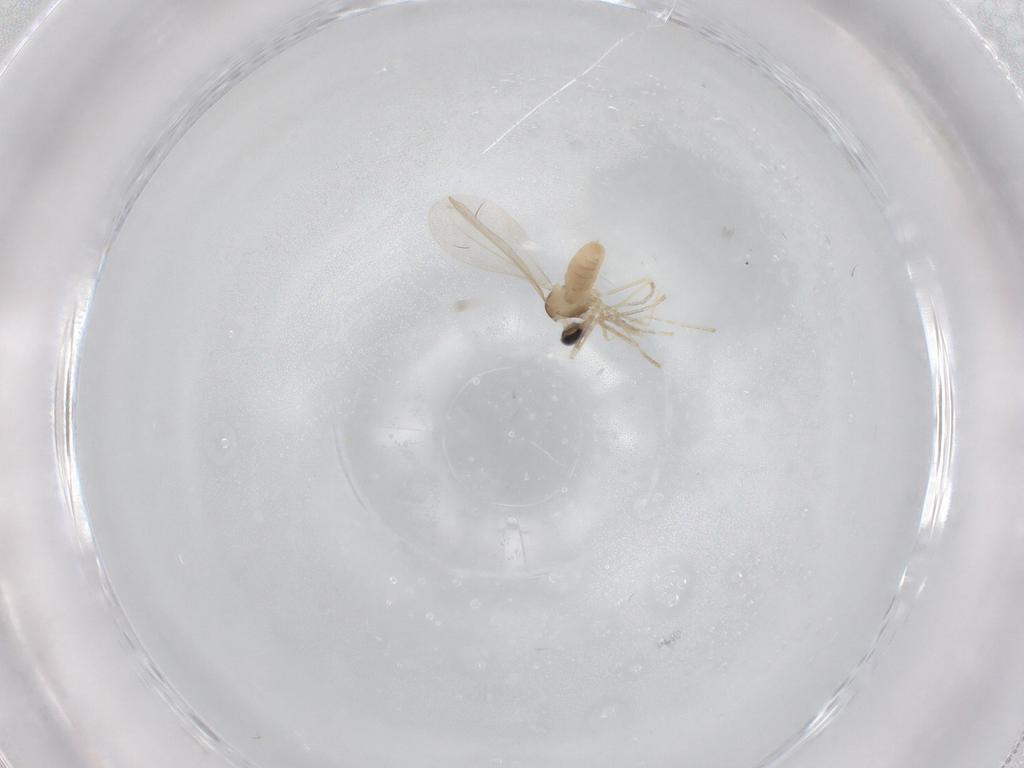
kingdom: Animalia
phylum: Arthropoda
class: Insecta
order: Diptera
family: Sciaridae
